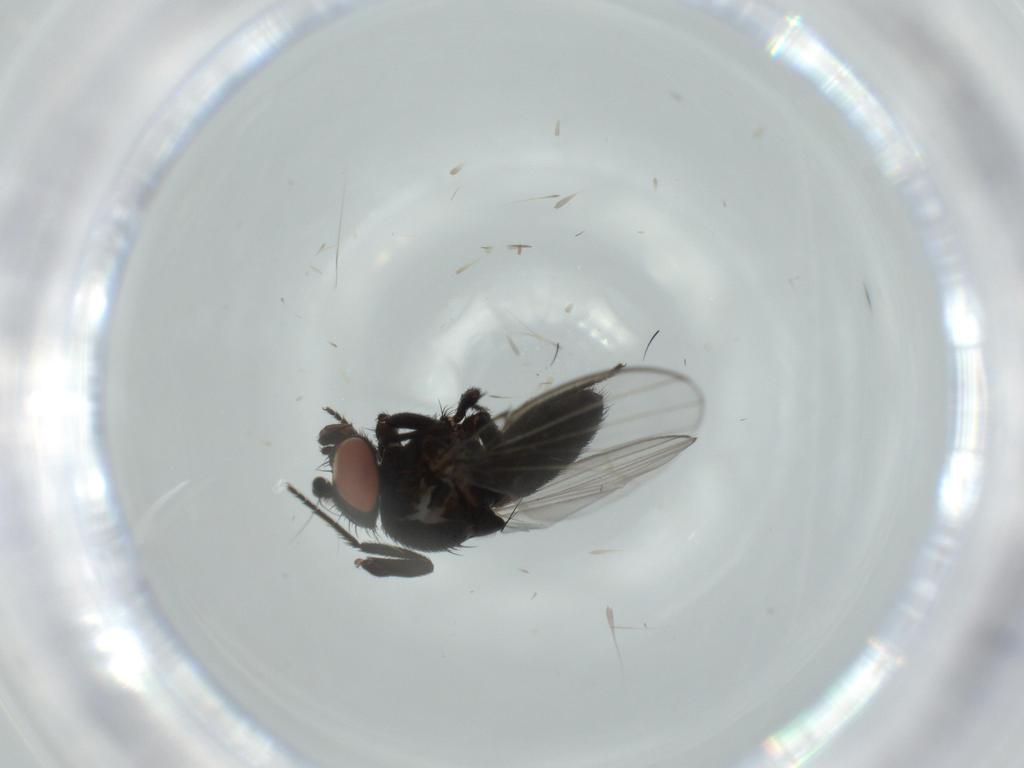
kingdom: Animalia
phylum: Arthropoda
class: Insecta
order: Diptera
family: Milichiidae
